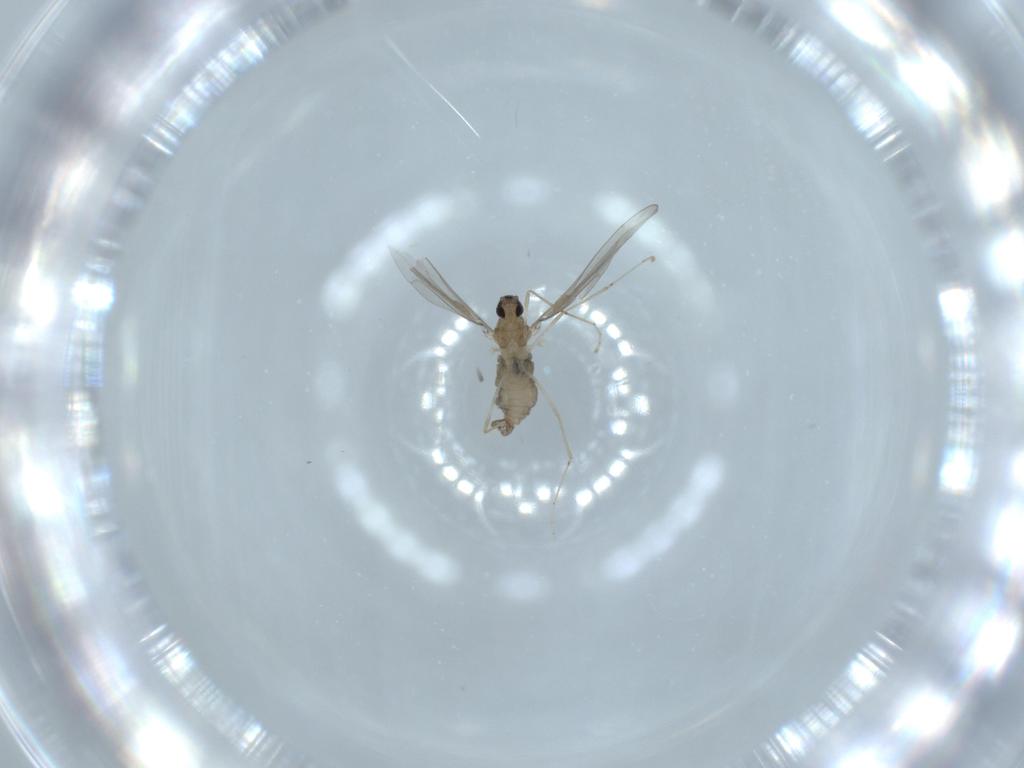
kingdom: Animalia
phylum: Arthropoda
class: Insecta
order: Diptera
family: Cecidomyiidae
